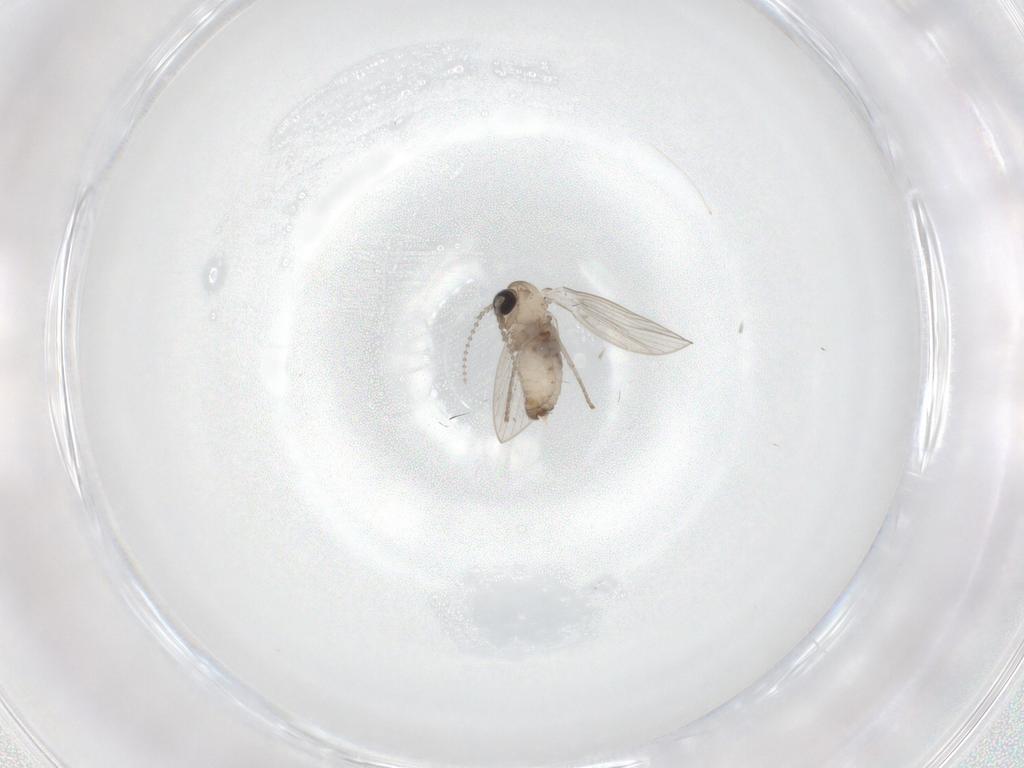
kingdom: Animalia
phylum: Arthropoda
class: Insecta
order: Diptera
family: Psychodidae
